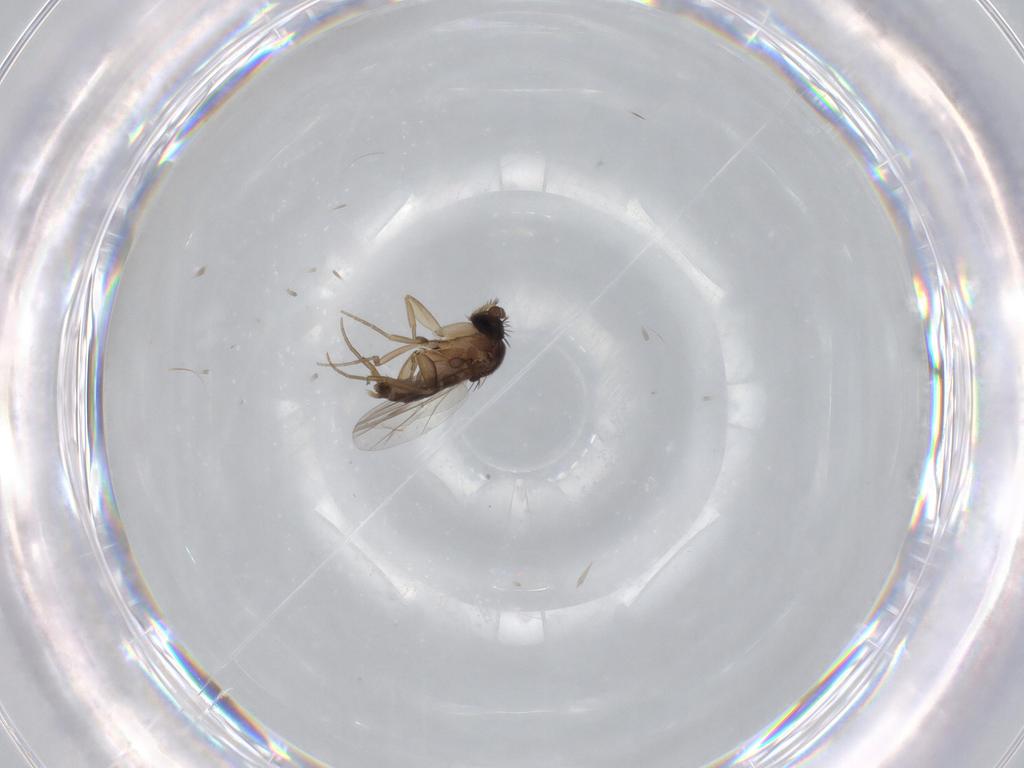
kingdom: Animalia
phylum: Arthropoda
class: Insecta
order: Diptera
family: Phoridae
